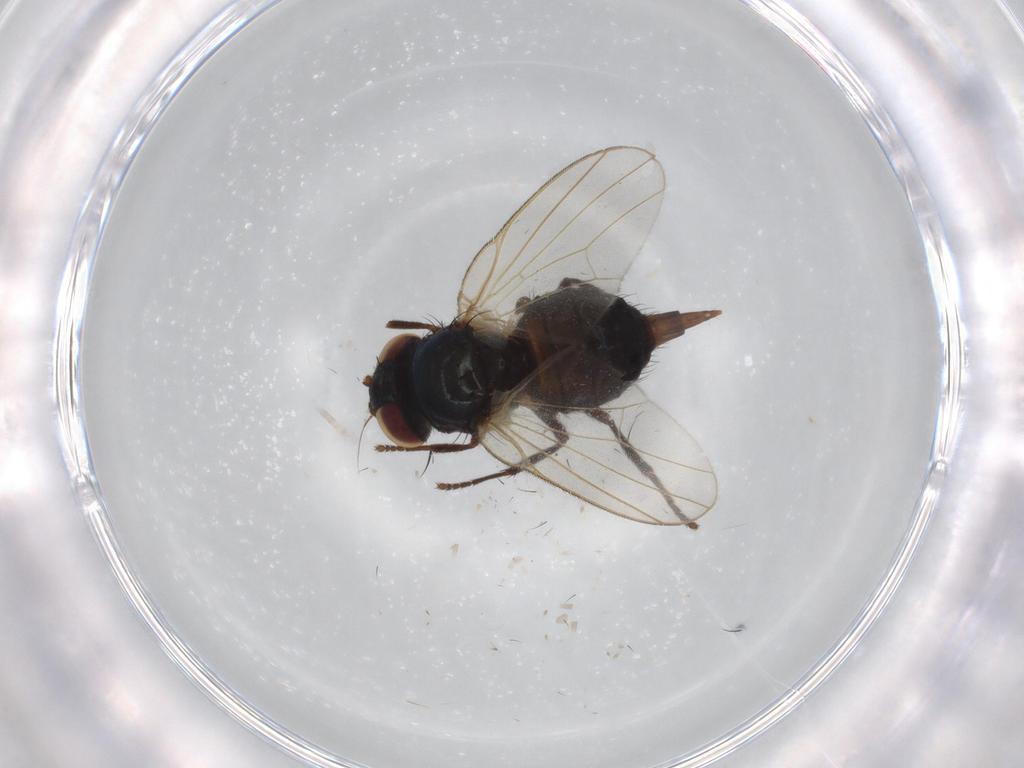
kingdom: Animalia
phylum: Arthropoda
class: Insecta
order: Diptera
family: Cecidomyiidae
